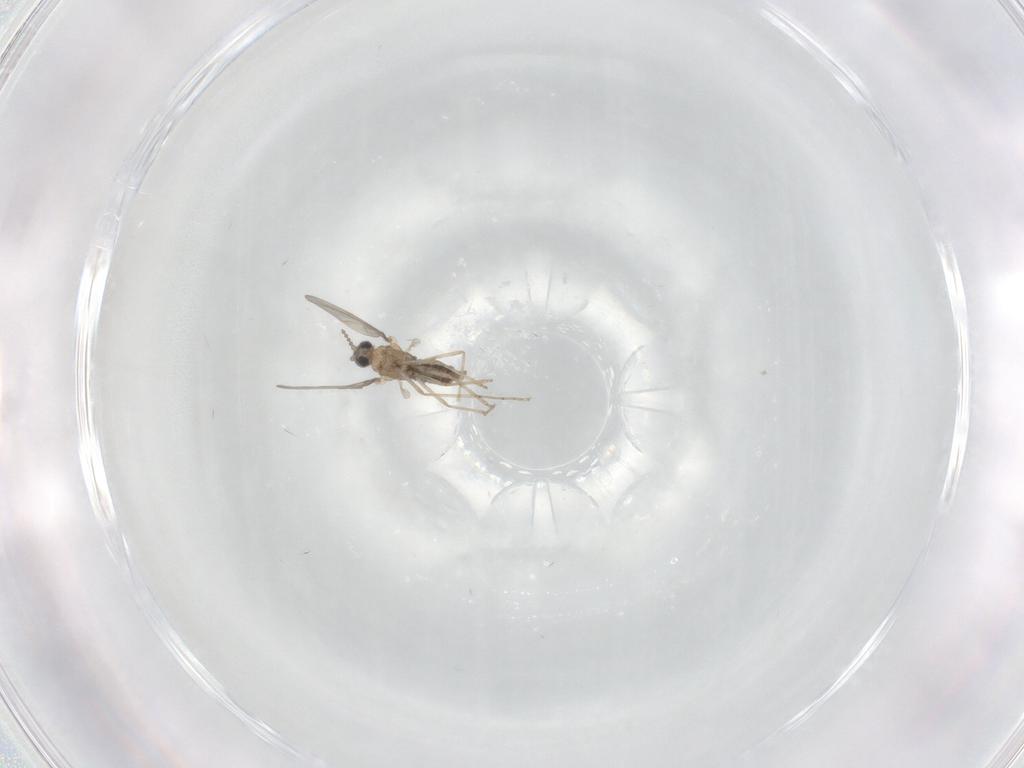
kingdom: Animalia
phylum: Arthropoda
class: Insecta
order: Diptera
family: Cecidomyiidae
